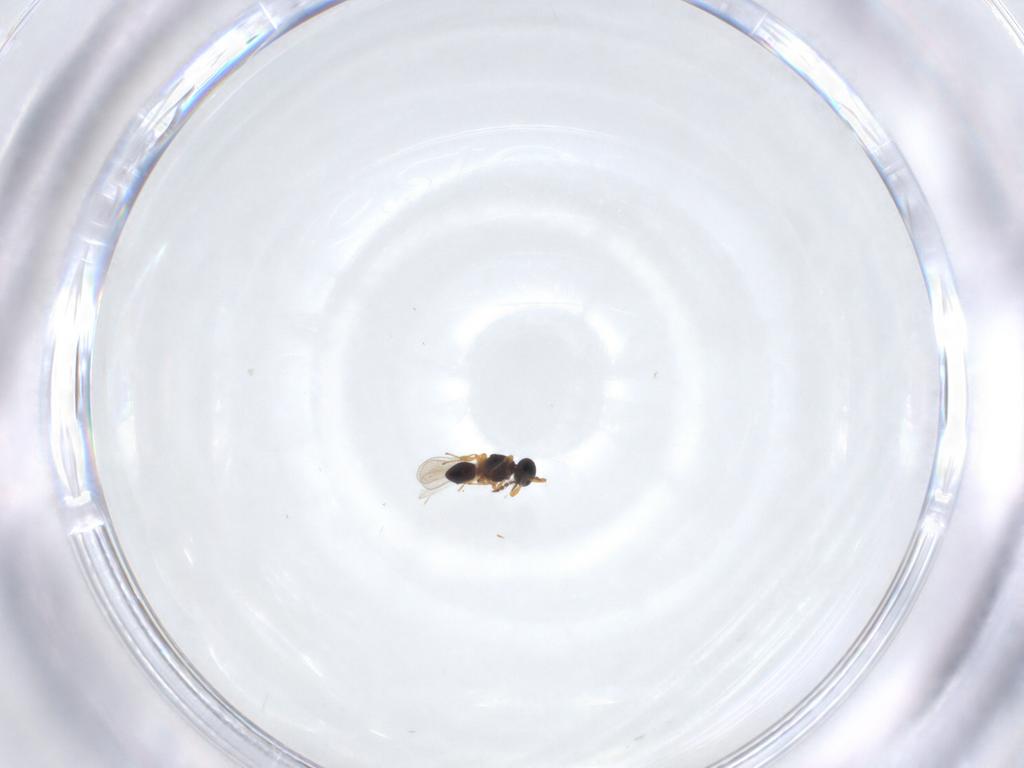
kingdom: Animalia
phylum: Arthropoda
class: Insecta
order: Hymenoptera
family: Platygastridae
